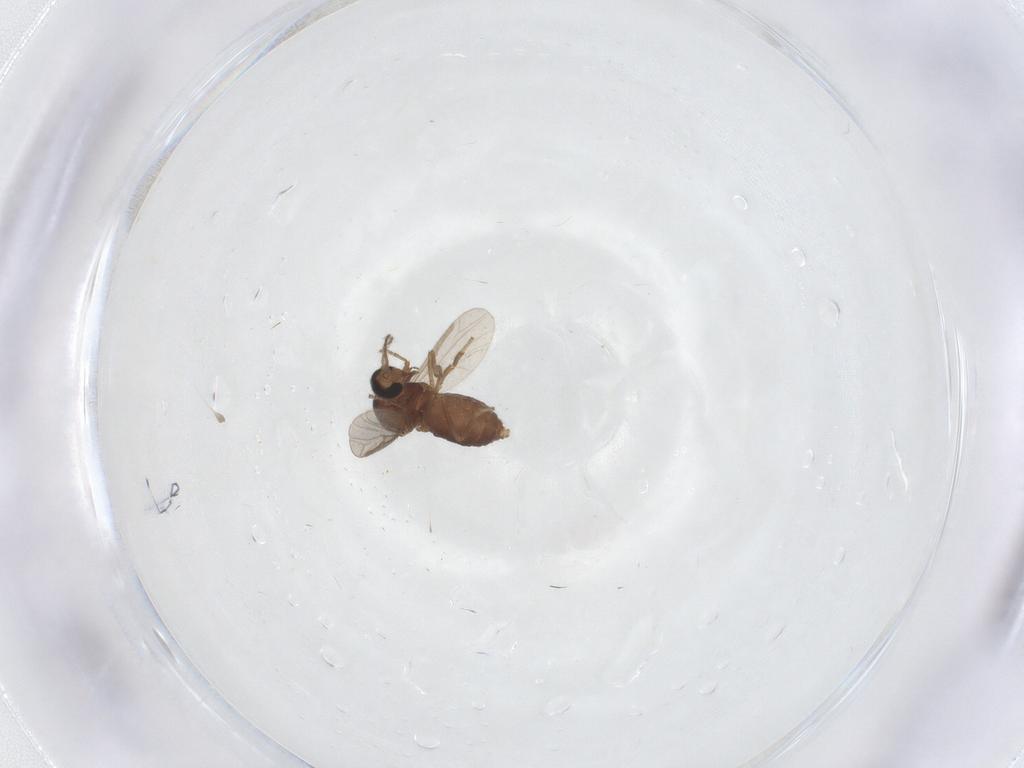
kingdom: Animalia
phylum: Arthropoda
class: Insecta
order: Diptera
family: Ceratopogonidae
